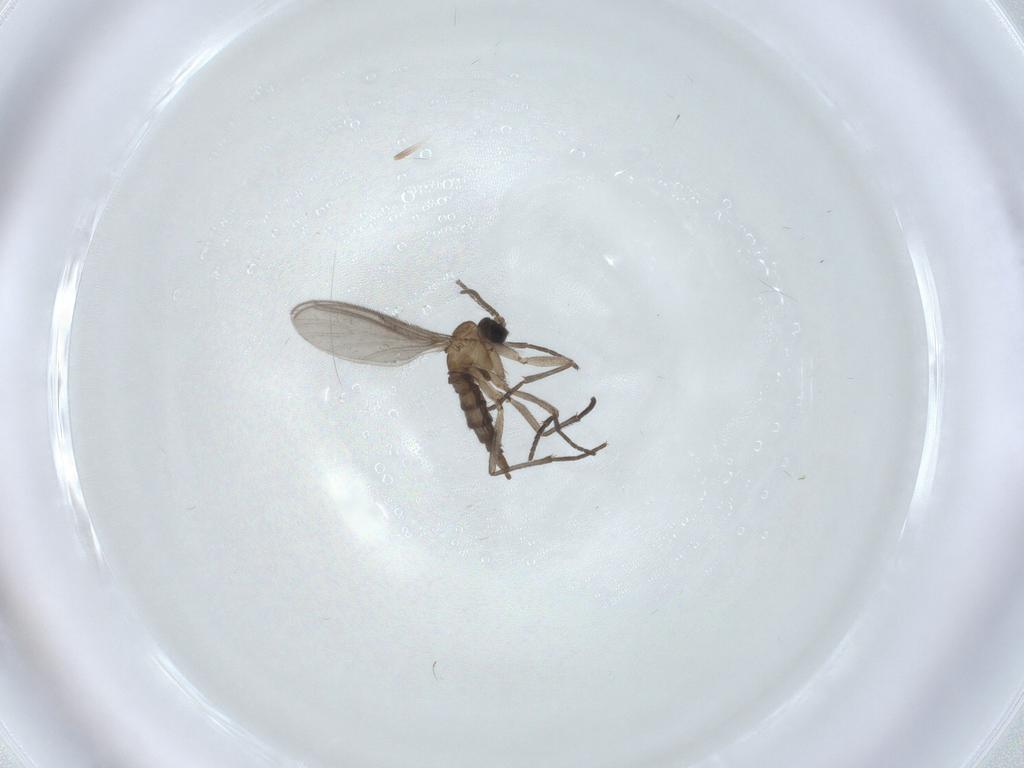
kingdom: Animalia
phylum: Arthropoda
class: Insecta
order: Diptera
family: Sciaridae
